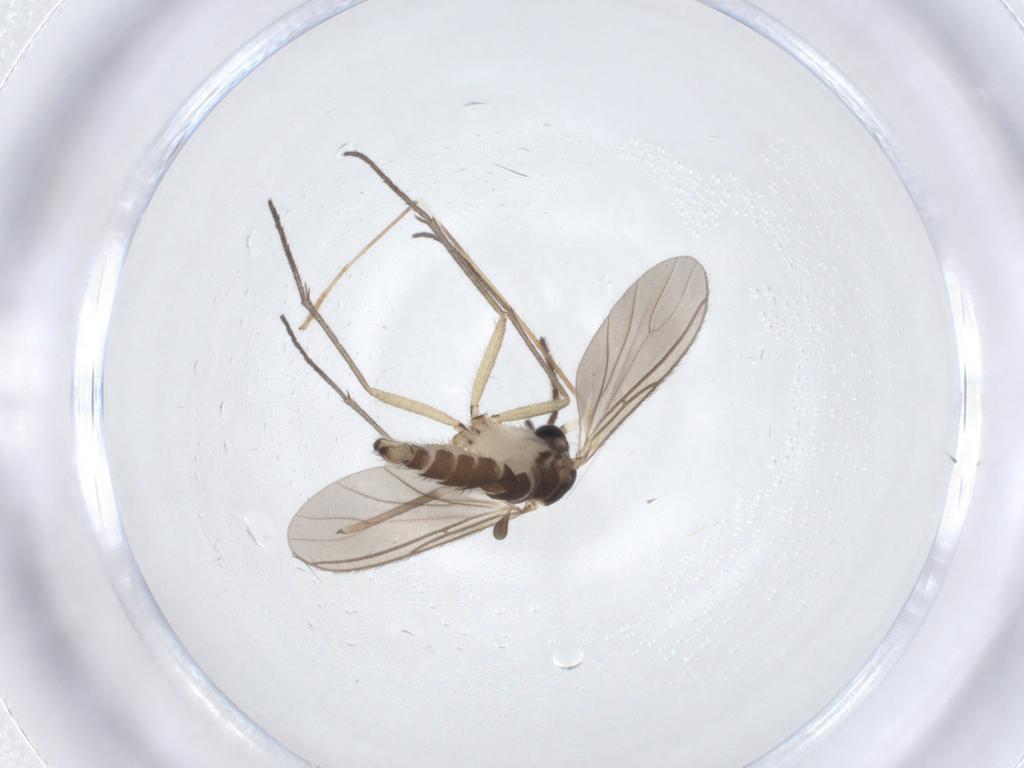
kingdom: Animalia
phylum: Arthropoda
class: Insecta
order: Diptera
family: Sciaridae
